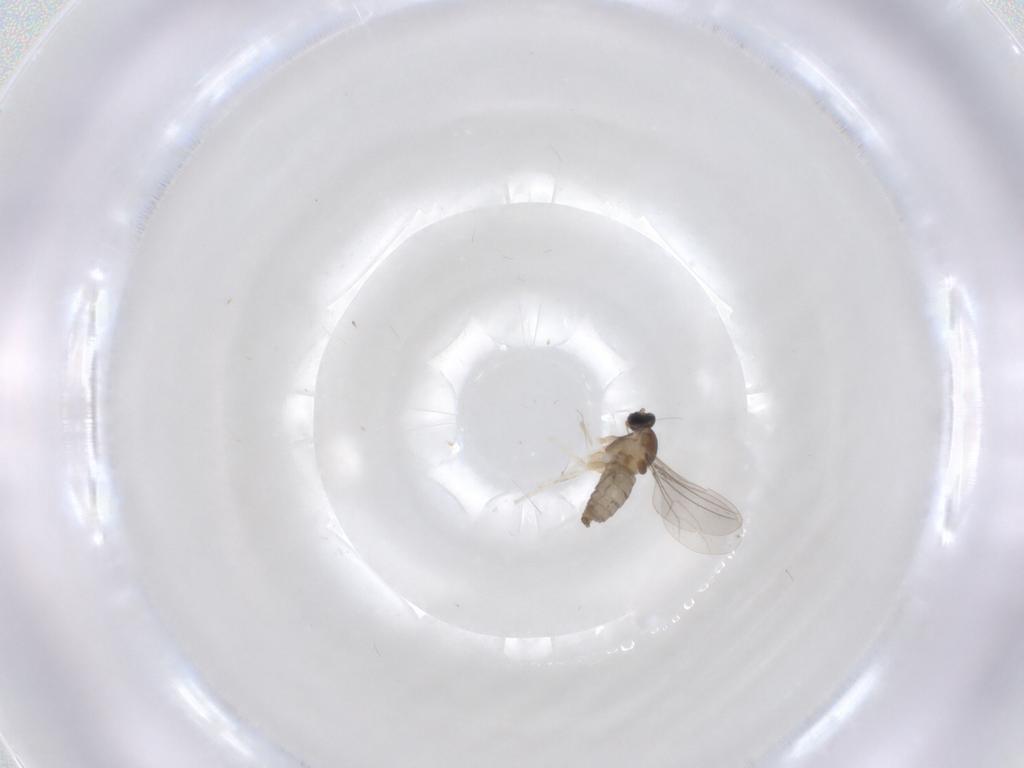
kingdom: Animalia
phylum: Arthropoda
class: Insecta
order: Diptera
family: Cecidomyiidae
